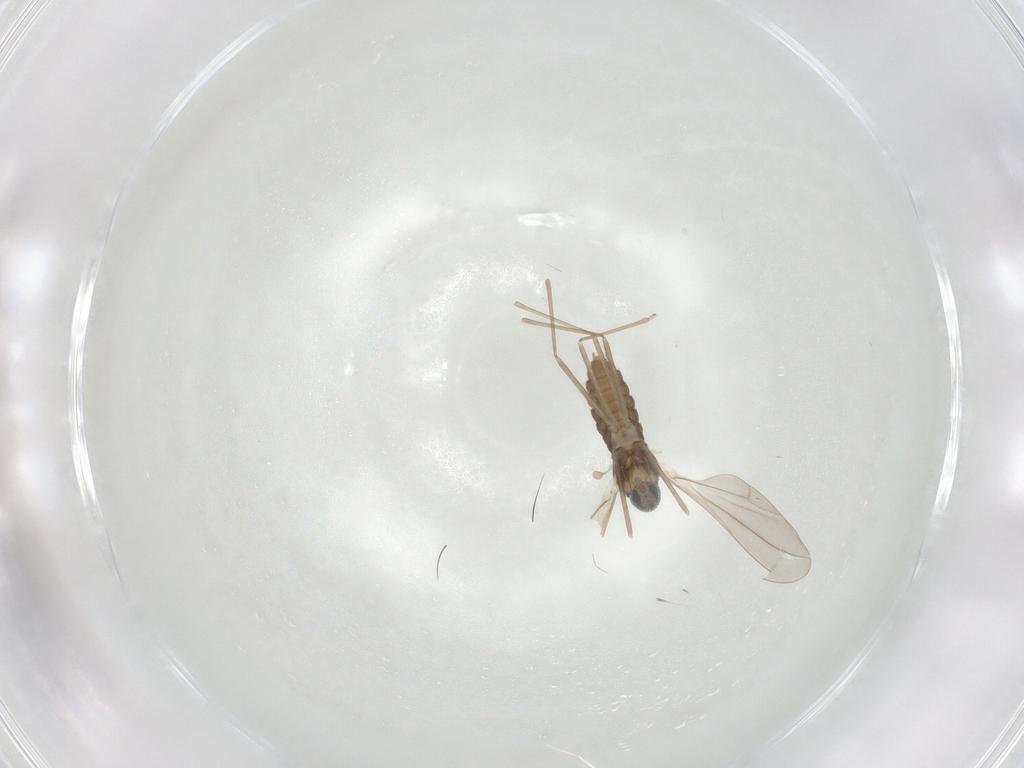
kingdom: Animalia
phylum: Arthropoda
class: Insecta
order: Diptera
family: Cecidomyiidae
